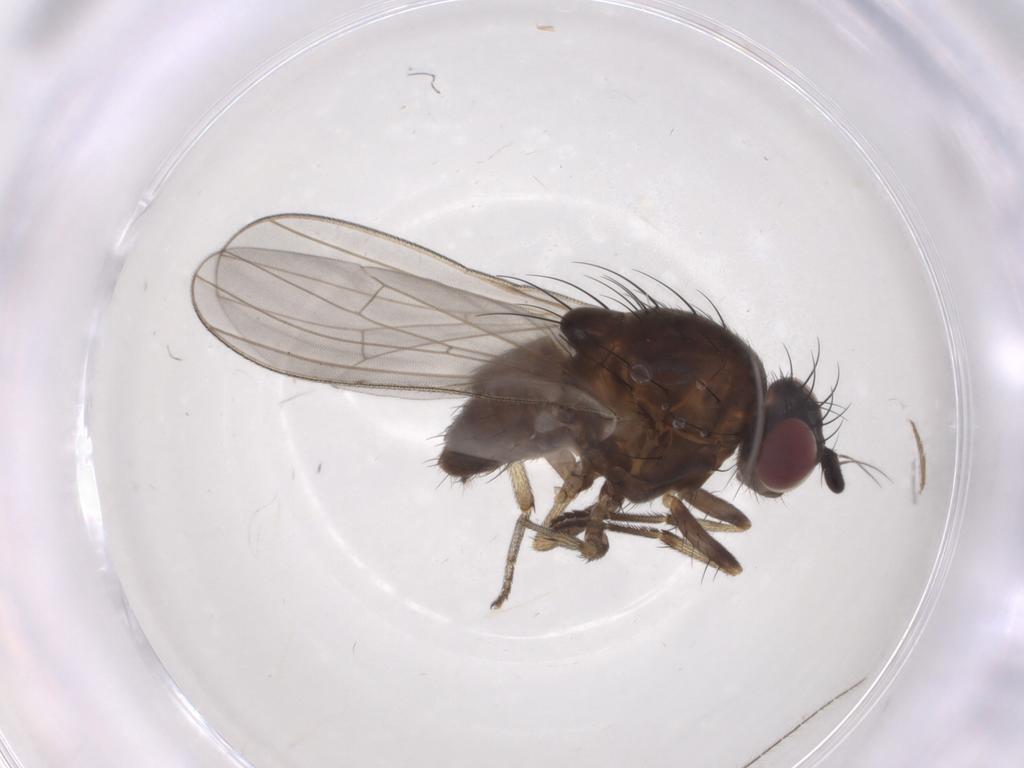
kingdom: Animalia
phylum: Arthropoda
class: Insecta
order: Diptera
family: Lauxaniidae
